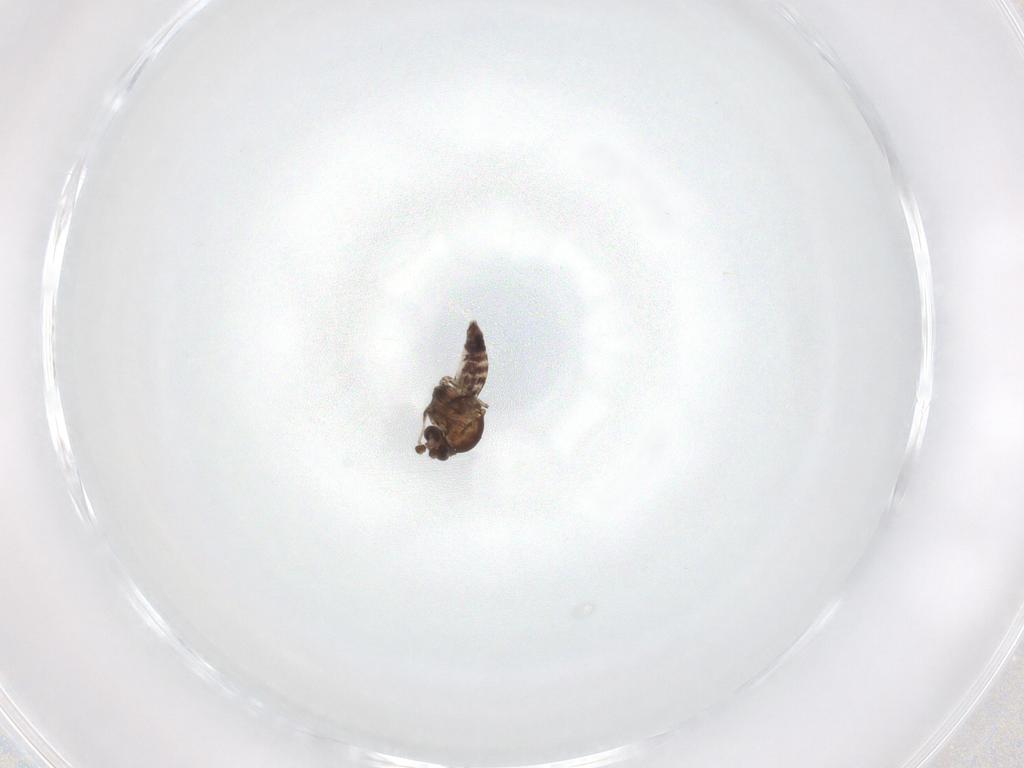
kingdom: Animalia
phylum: Arthropoda
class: Insecta
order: Diptera
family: Ceratopogonidae
